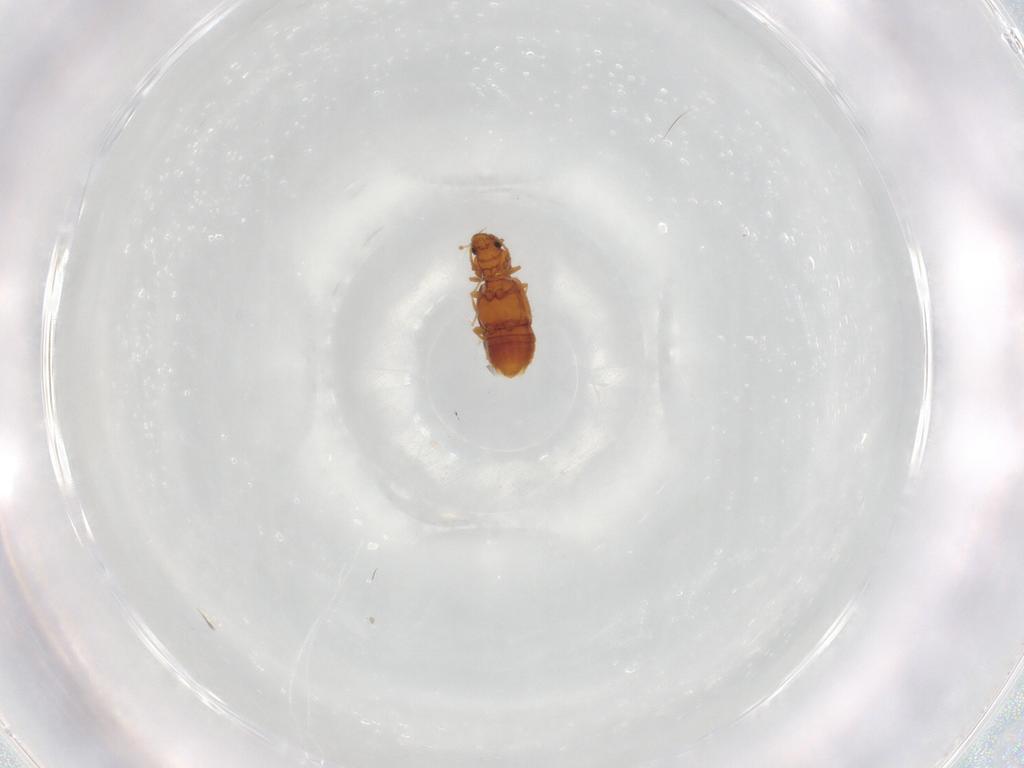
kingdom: Animalia
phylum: Arthropoda
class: Insecta
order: Coleoptera
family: Staphylinidae
